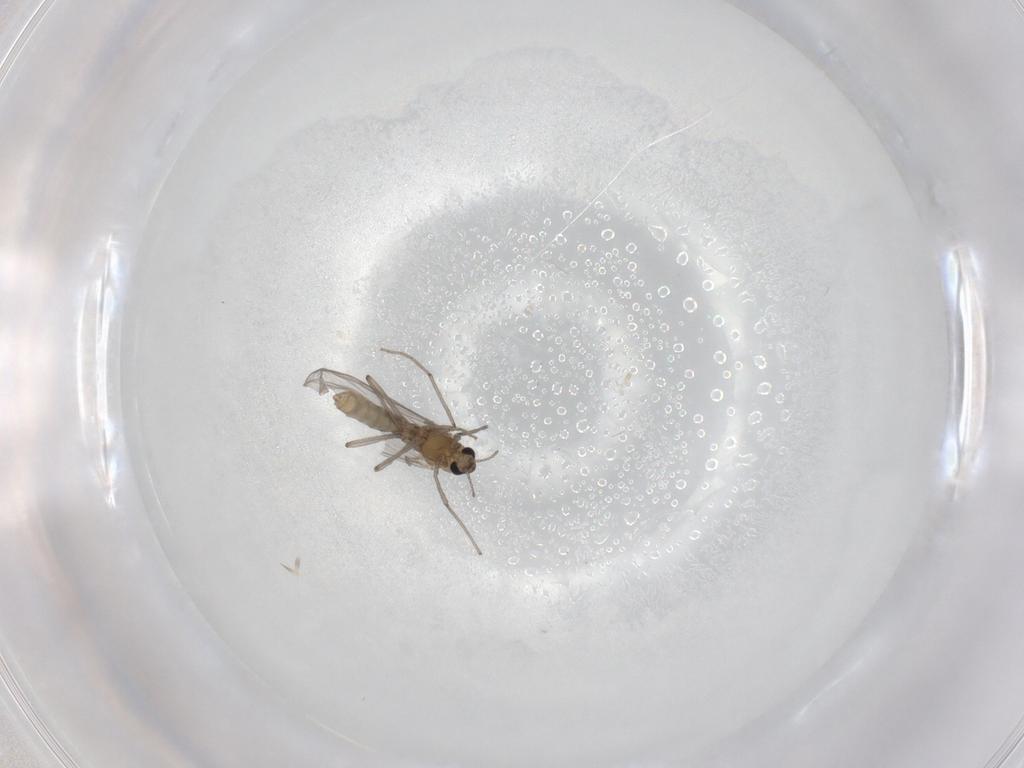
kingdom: Animalia
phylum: Arthropoda
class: Insecta
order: Diptera
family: Chironomidae
